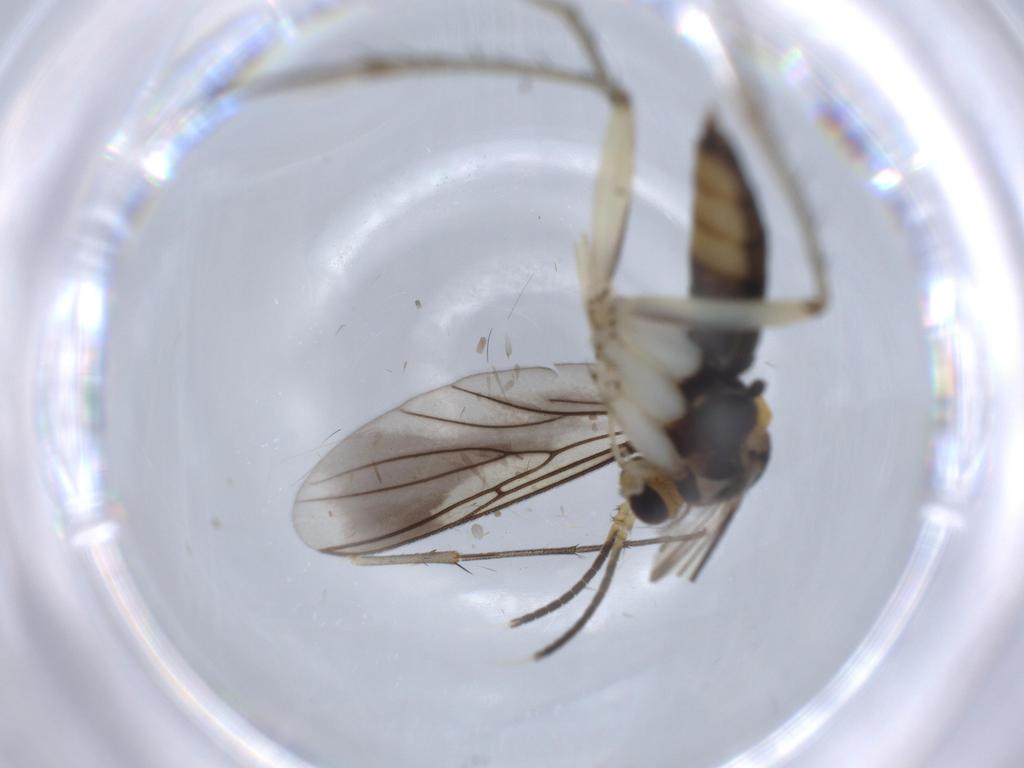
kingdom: Animalia
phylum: Arthropoda
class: Insecta
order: Diptera
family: Mycetophilidae
